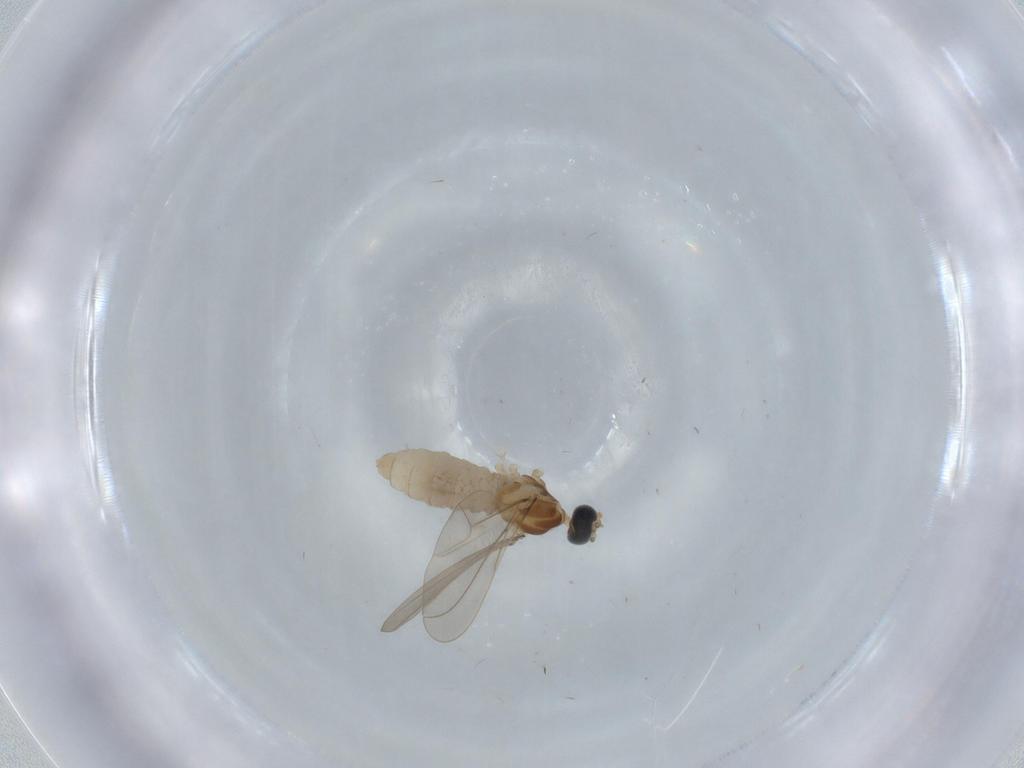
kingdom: Animalia
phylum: Arthropoda
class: Insecta
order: Diptera
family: Cecidomyiidae
